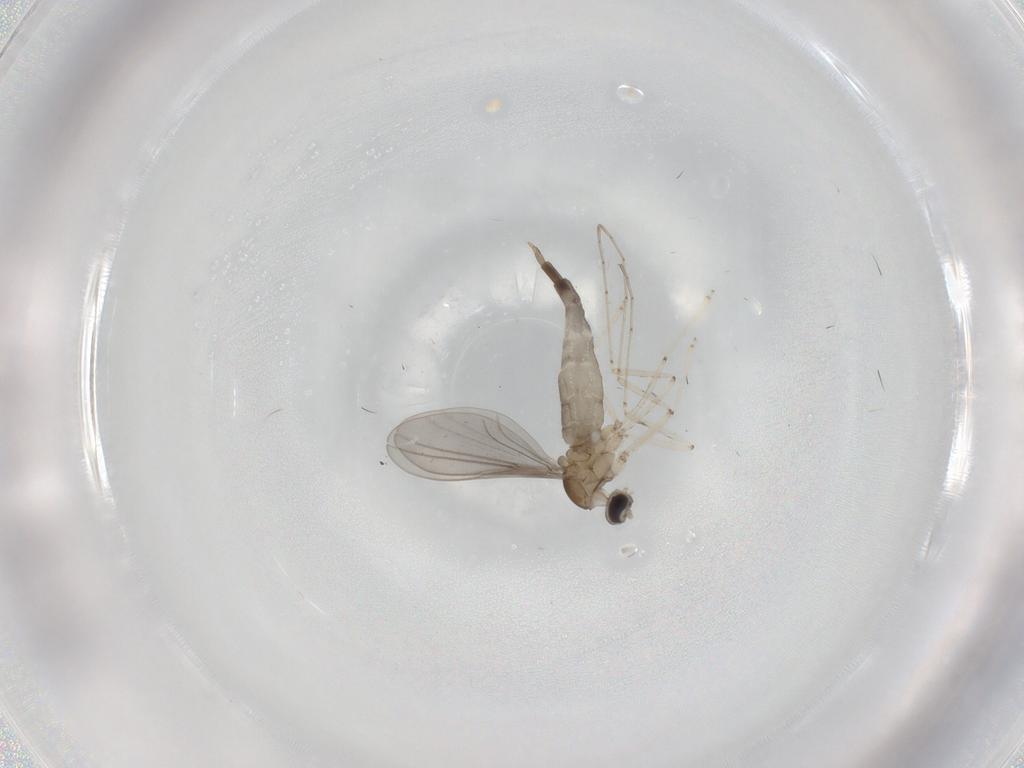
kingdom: Animalia
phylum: Arthropoda
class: Insecta
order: Diptera
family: Cecidomyiidae
